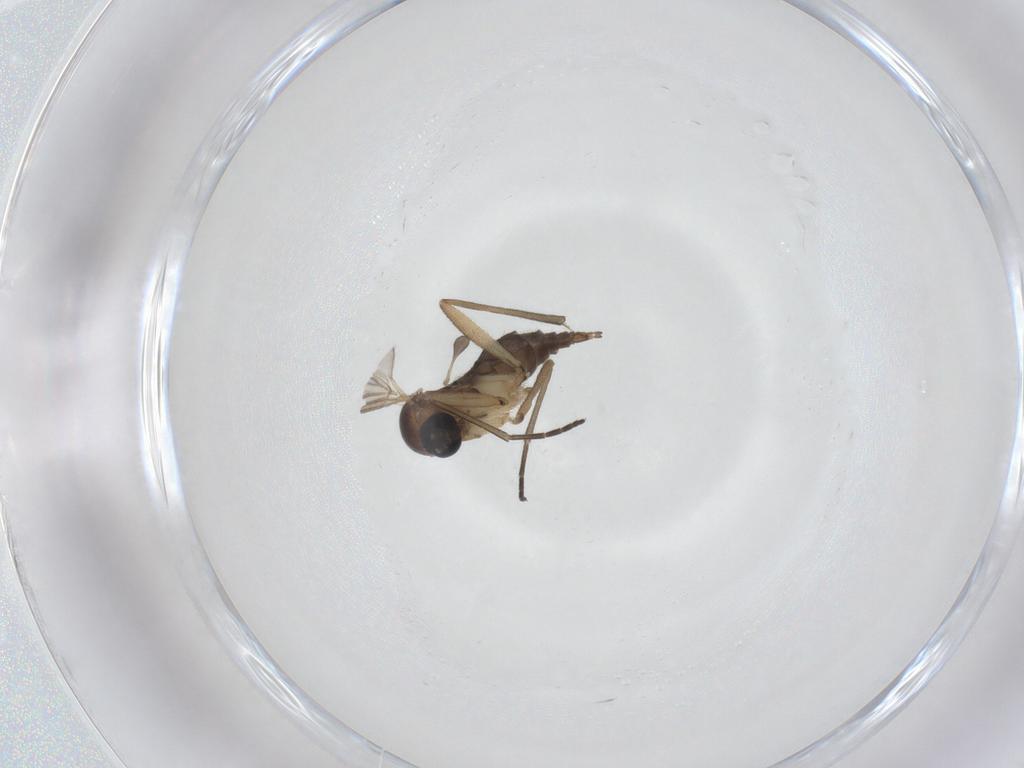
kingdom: Animalia
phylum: Arthropoda
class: Insecta
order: Diptera
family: Sciaridae
